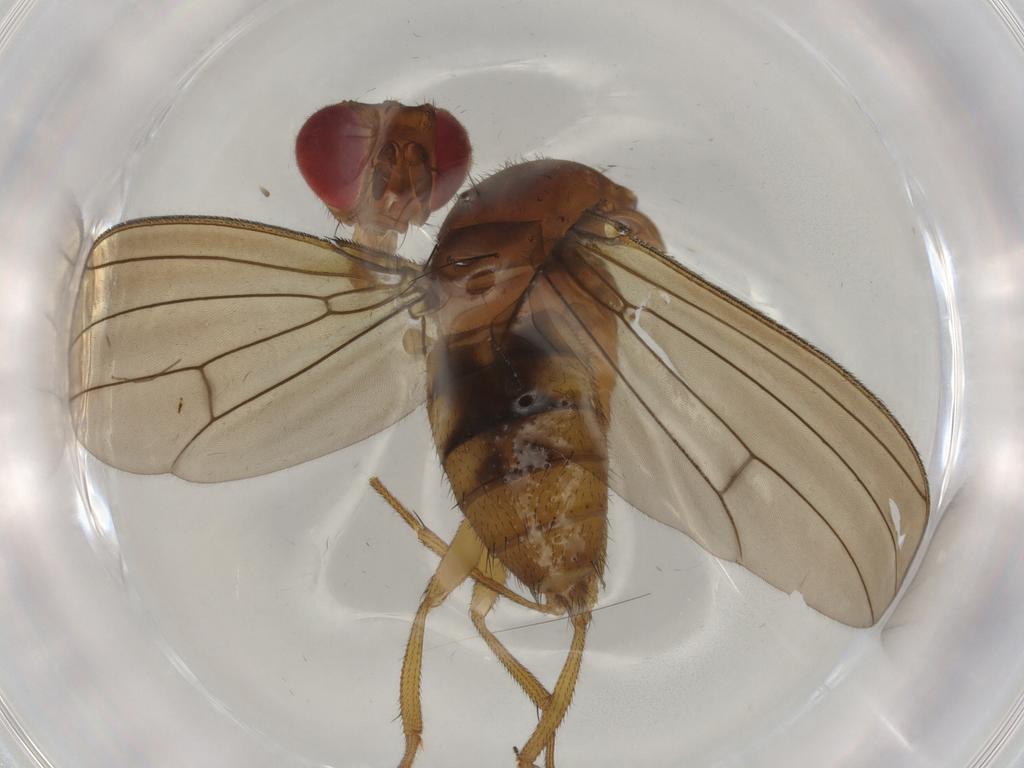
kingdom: Animalia
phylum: Arthropoda
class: Insecta
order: Diptera
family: Drosophilidae
